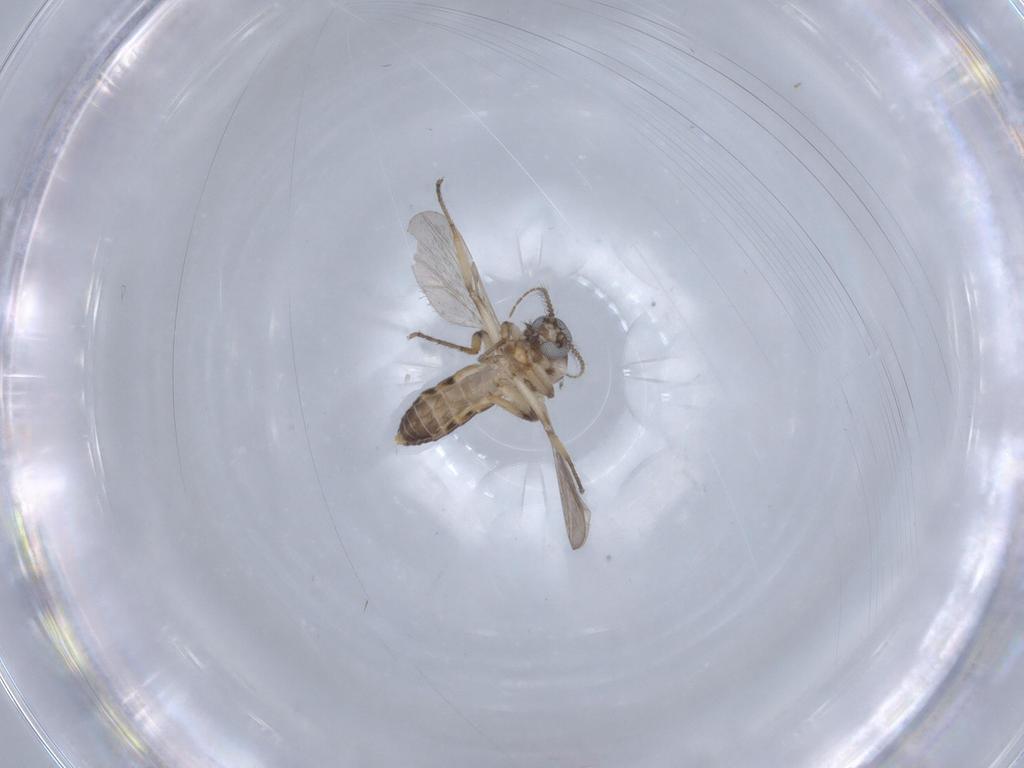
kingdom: Animalia
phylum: Arthropoda
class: Insecta
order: Diptera
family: Ceratopogonidae
